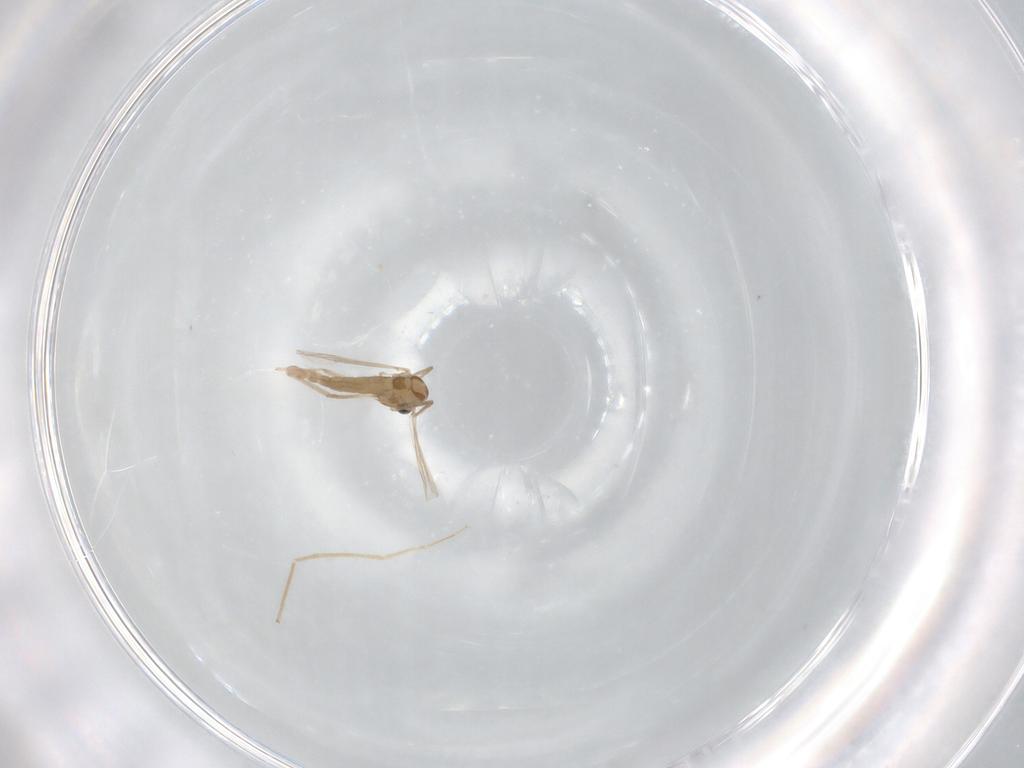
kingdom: Animalia
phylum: Arthropoda
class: Insecta
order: Diptera
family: Chironomidae
